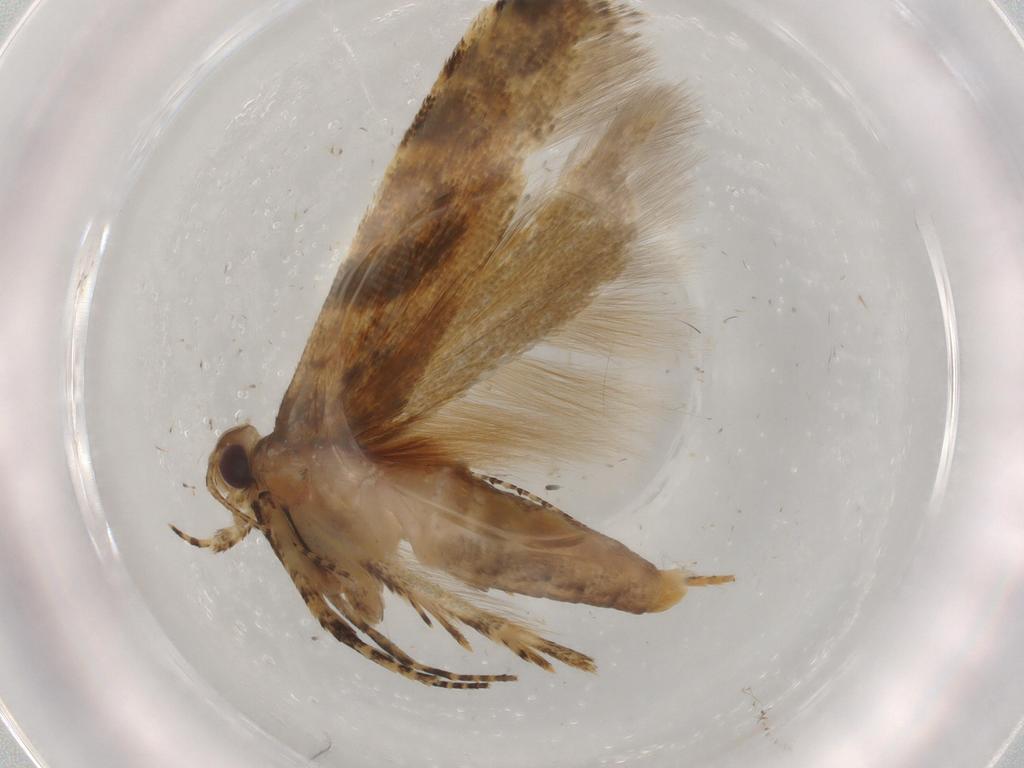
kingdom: Animalia
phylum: Arthropoda
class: Insecta
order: Lepidoptera
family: Gelechiidae
